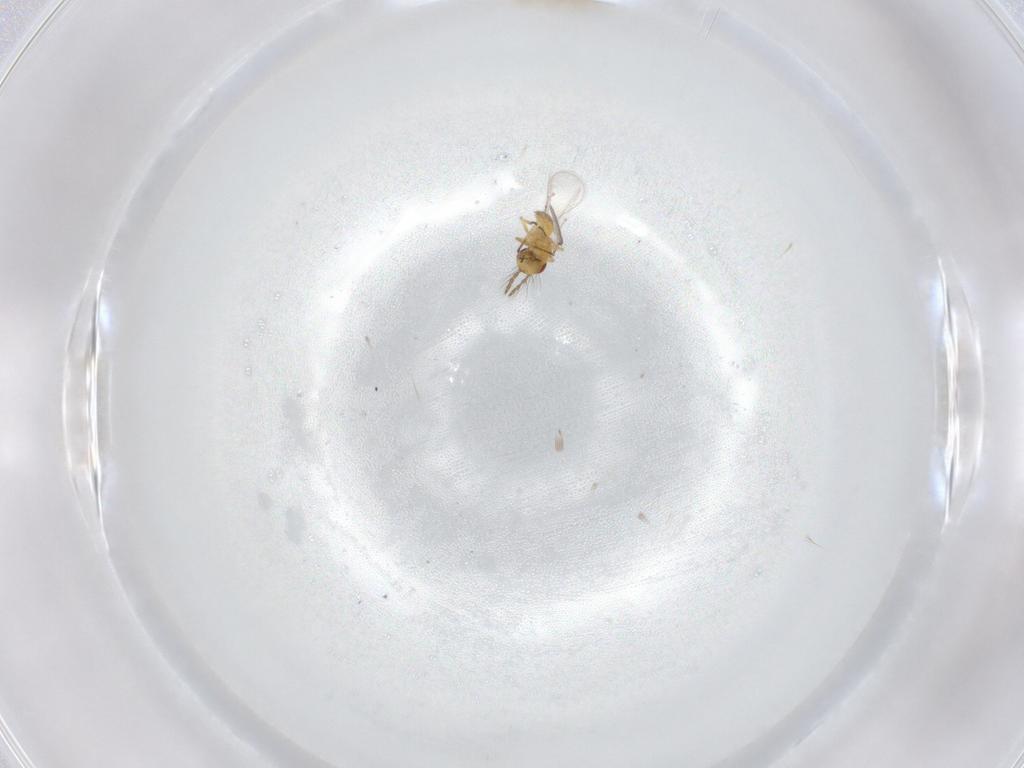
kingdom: Animalia
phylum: Arthropoda
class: Insecta
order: Hymenoptera
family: Eulophidae
